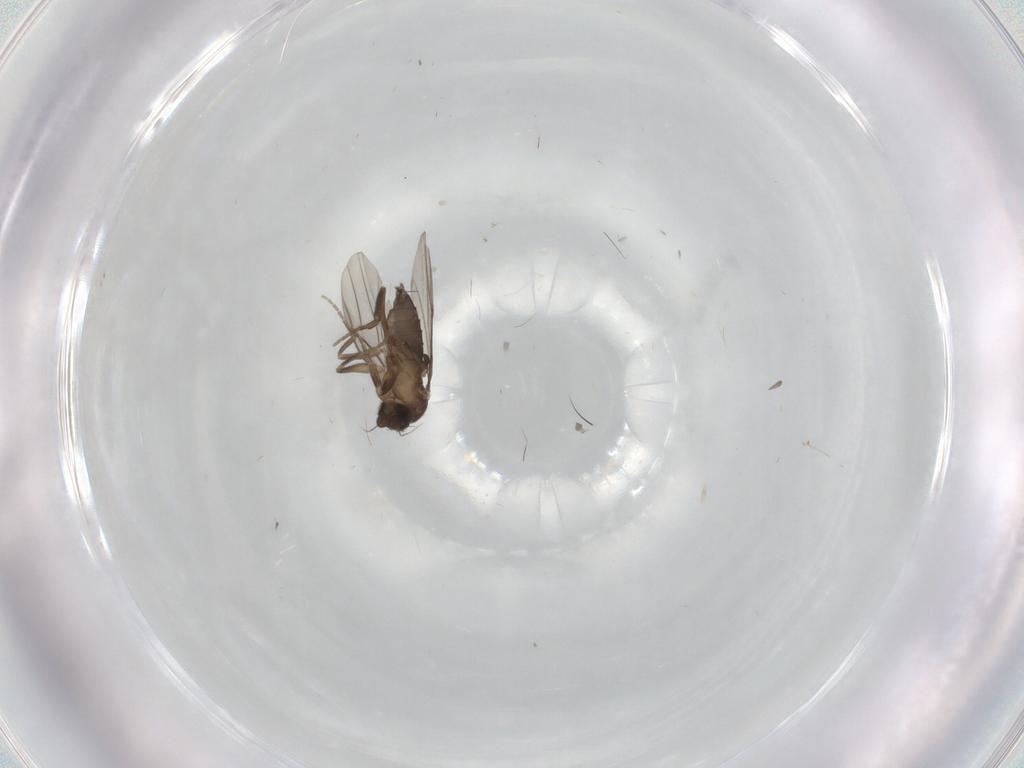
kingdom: Animalia
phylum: Arthropoda
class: Insecta
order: Diptera
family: Phoridae
